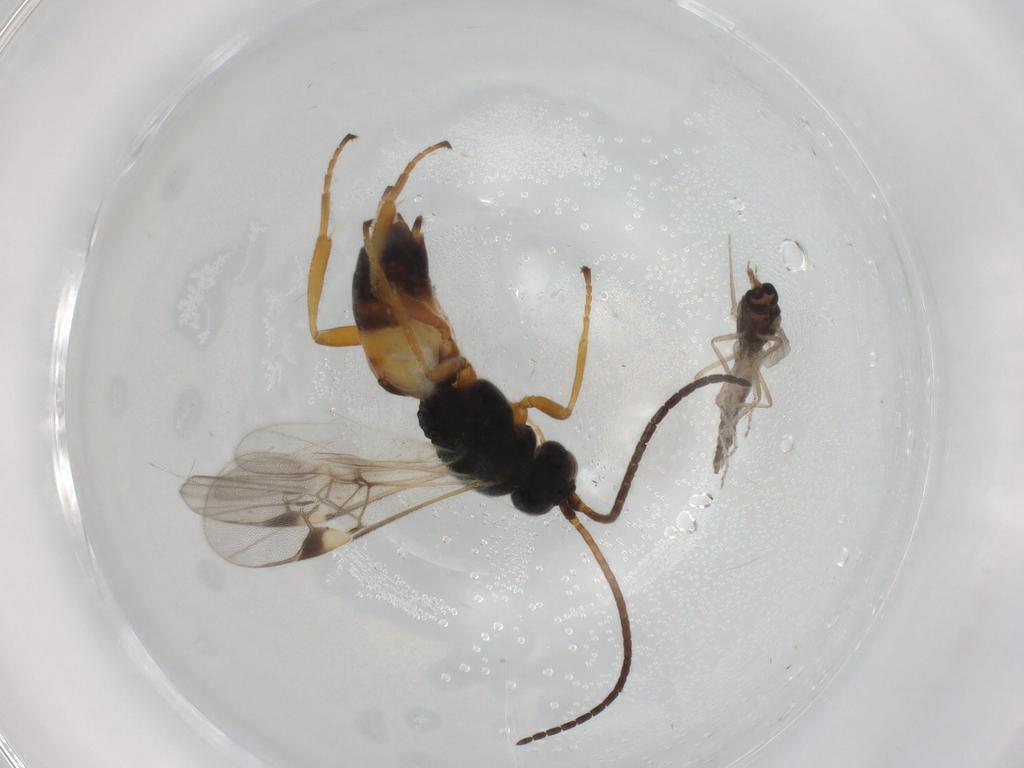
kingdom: Animalia
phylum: Arthropoda
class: Insecta
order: Diptera
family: Ceratopogonidae
